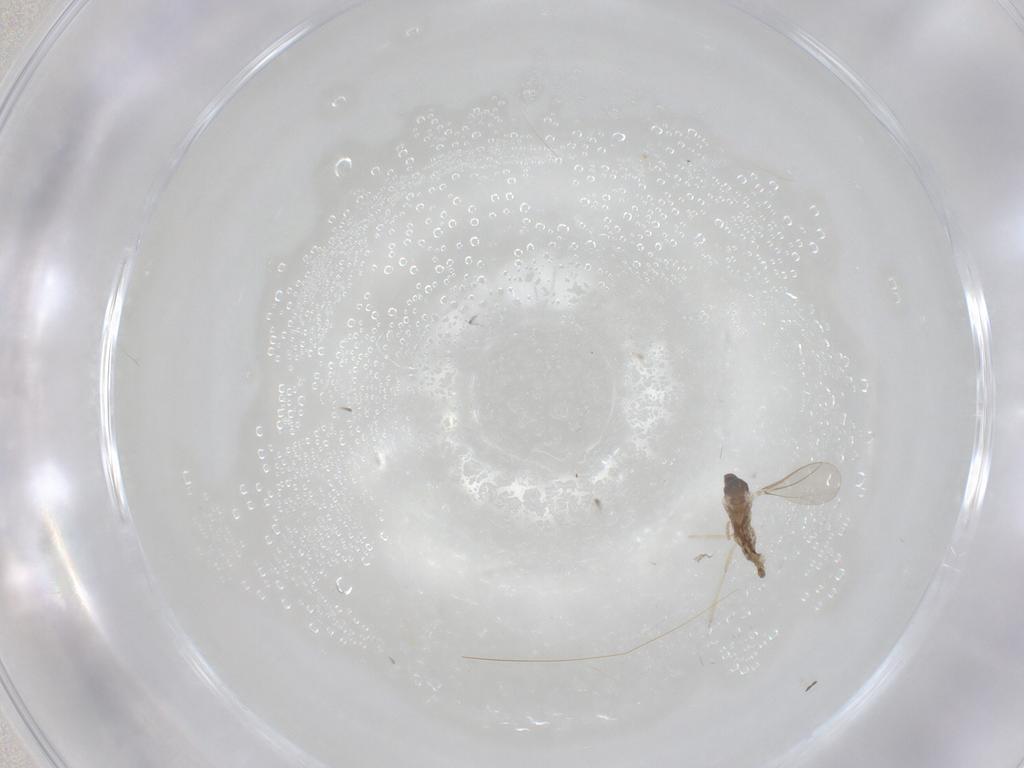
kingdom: Animalia
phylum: Arthropoda
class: Insecta
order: Diptera
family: Cecidomyiidae
